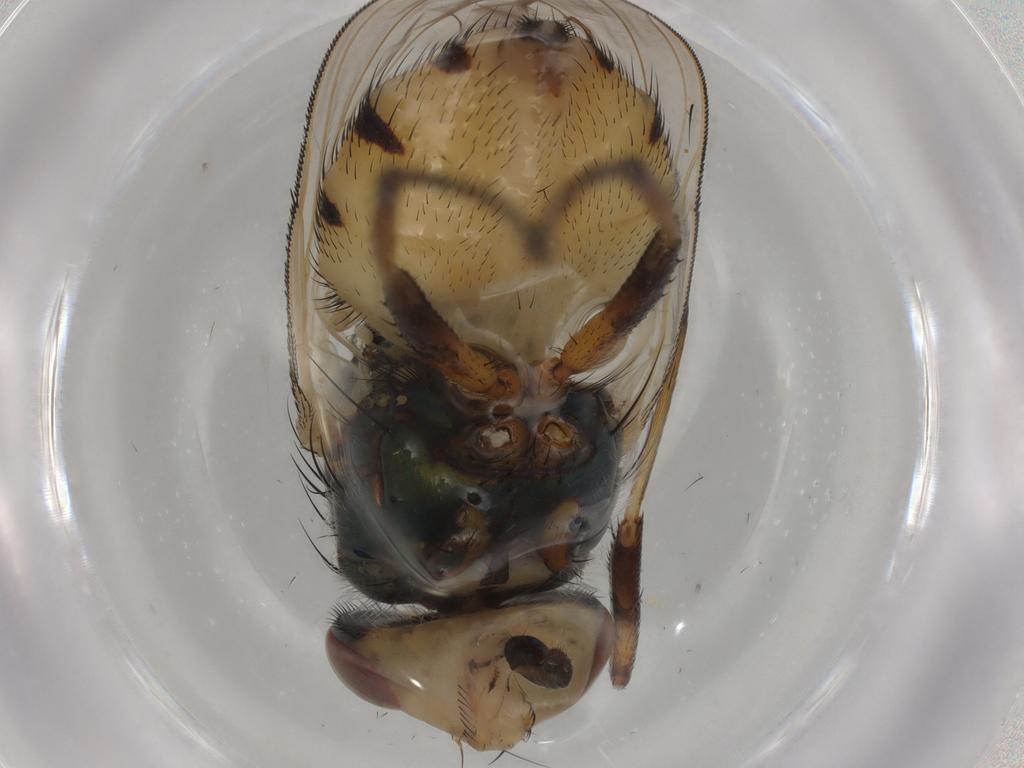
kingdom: Animalia
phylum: Arthropoda
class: Insecta
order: Diptera
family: Calliphoridae
